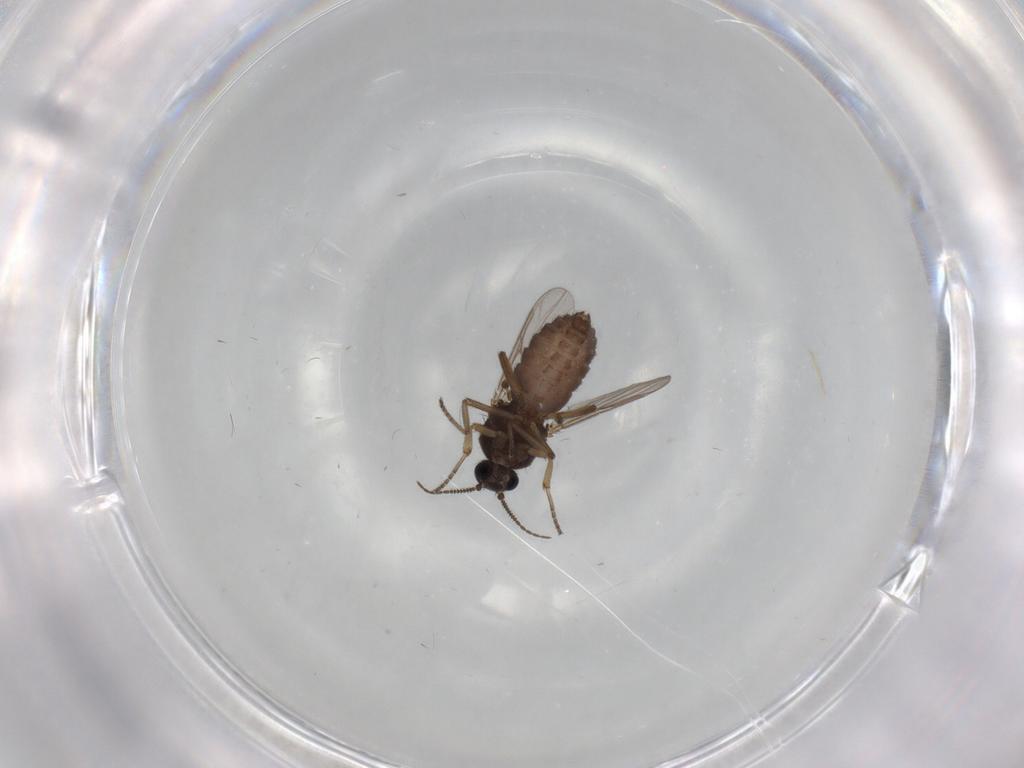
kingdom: Animalia
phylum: Arthropoda
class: Insecta
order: Diptera
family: Ceratopogonidae
